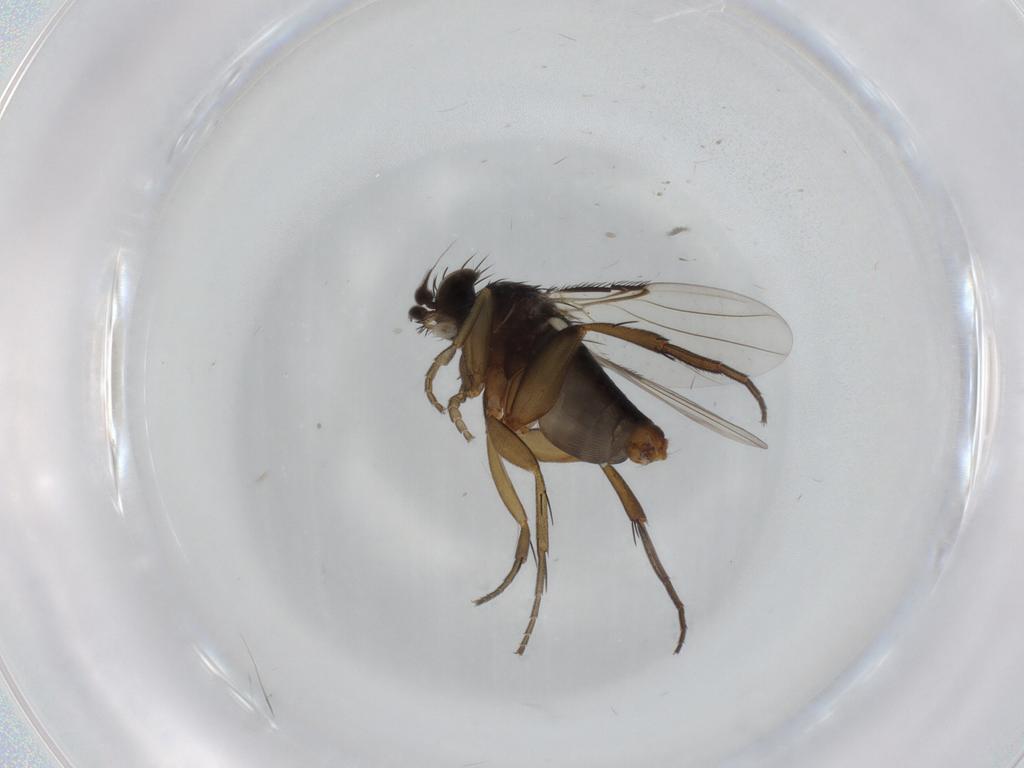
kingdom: Animalia
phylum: Arthropoda
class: Insecta
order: Diptera
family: Phoridae
